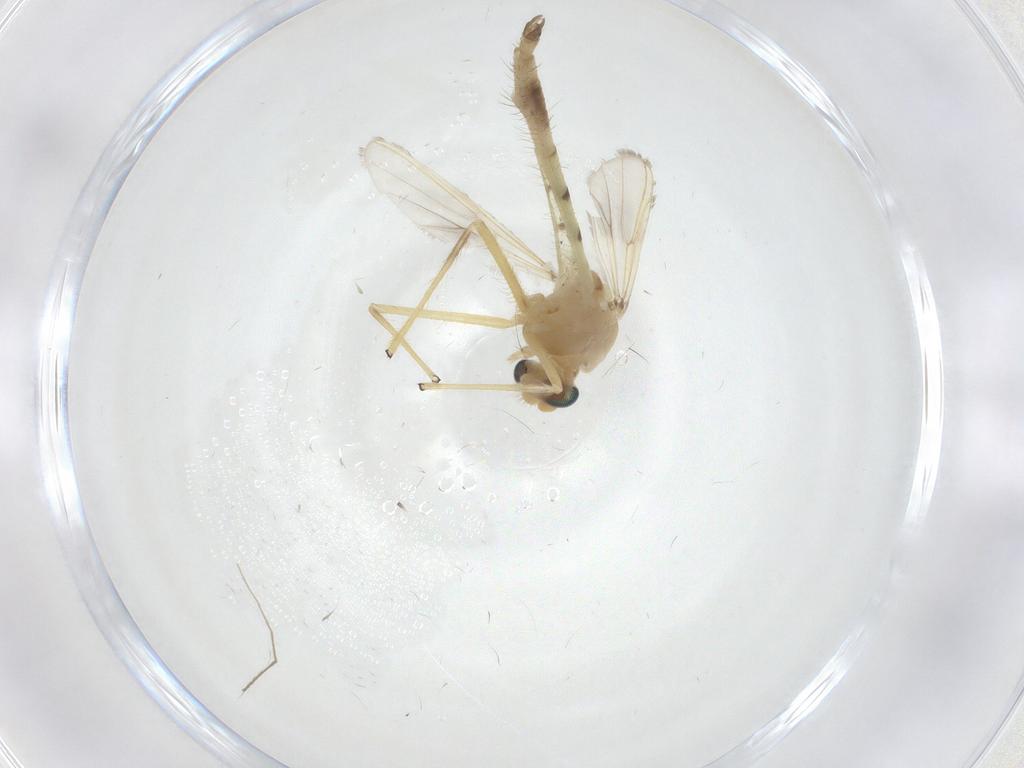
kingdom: Animalia
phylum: Arthropoda
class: Insecta
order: Diptera
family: Chironomidae
